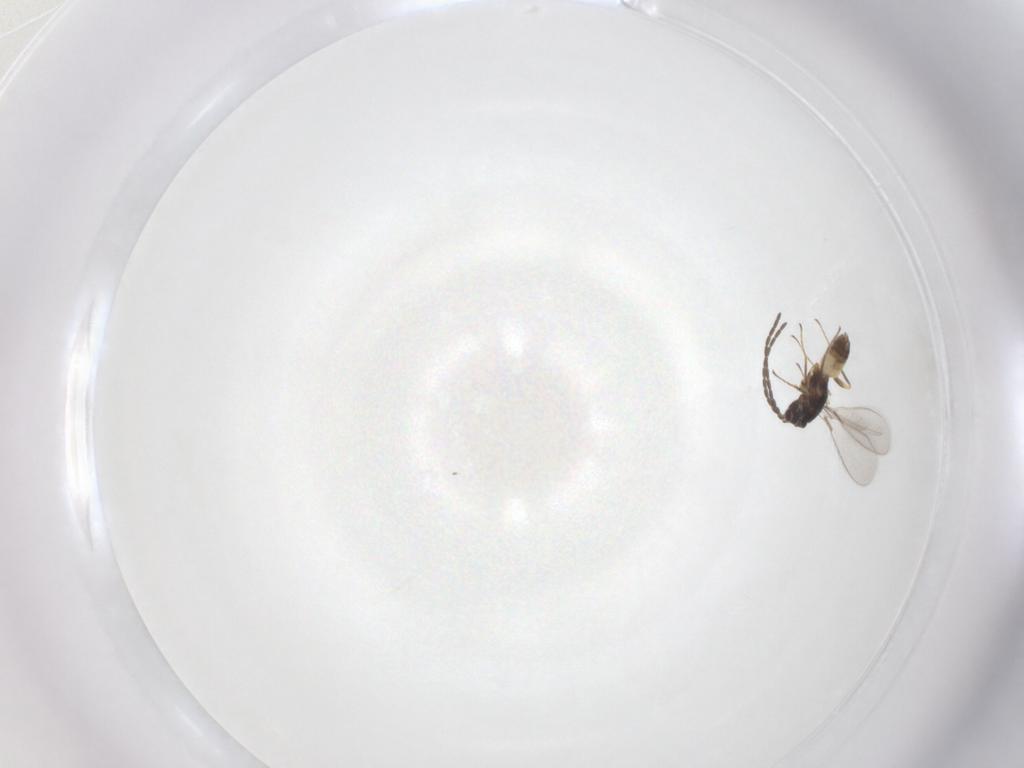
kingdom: Animalia
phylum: Arthropoda
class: Insecta
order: Hymenoptera
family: Mymaridae
